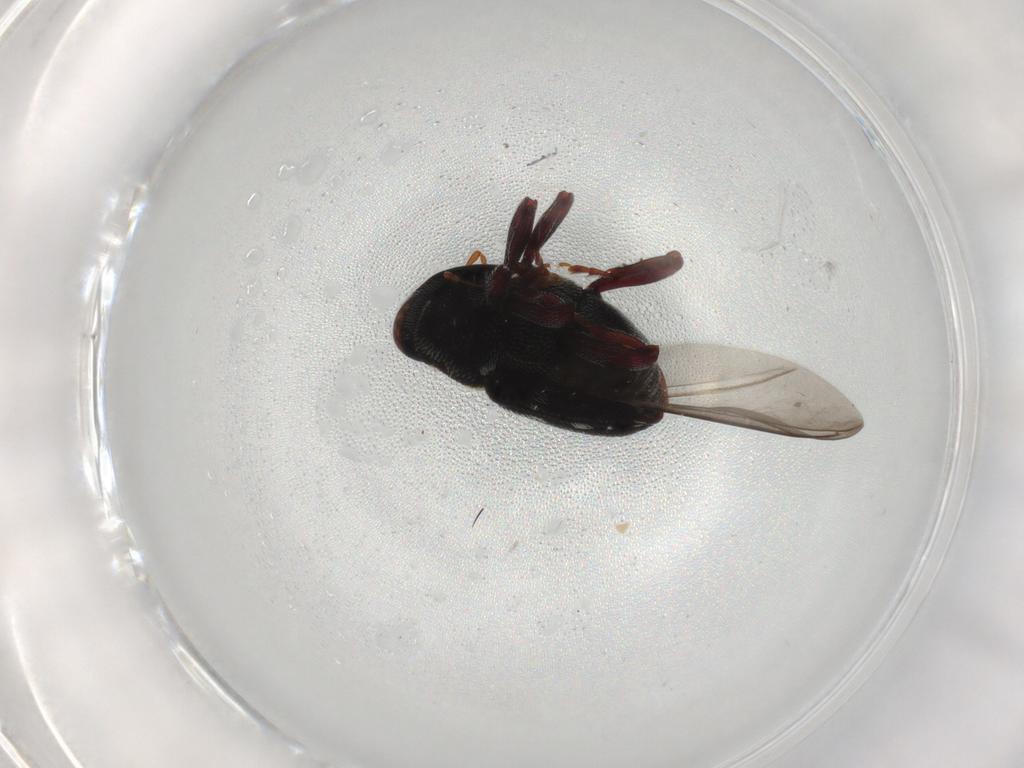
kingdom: Animalia
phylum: Arthropoda
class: Insecta
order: Coleoptera
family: Curculionidae
